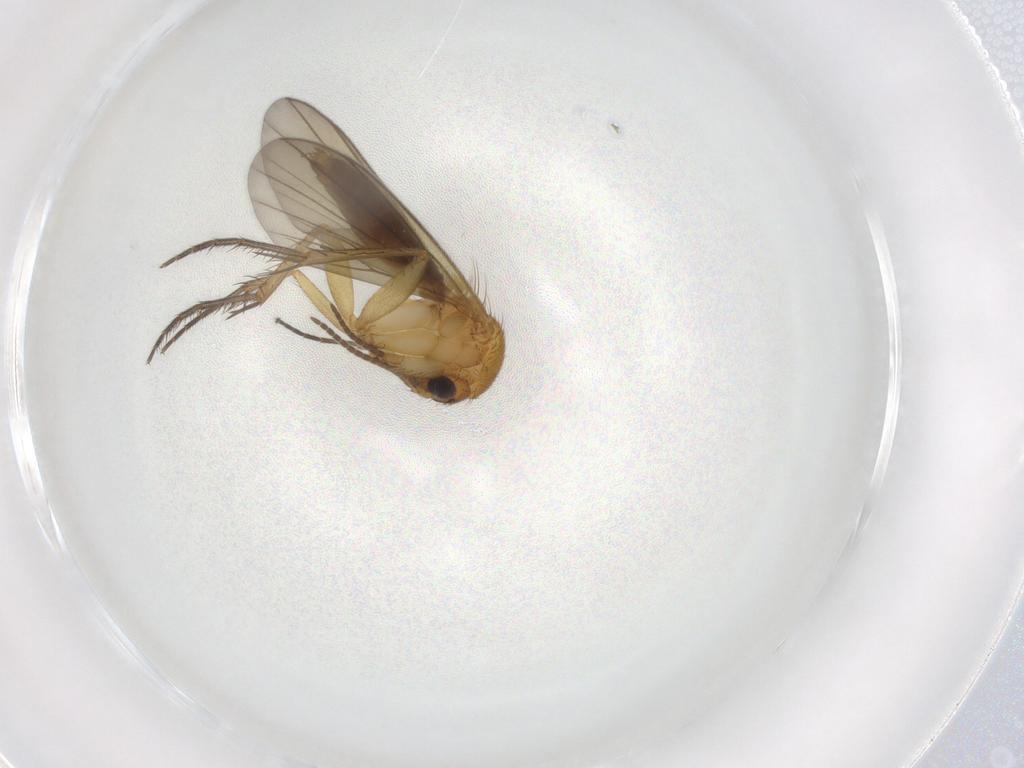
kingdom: Animalia
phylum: Arthropoda
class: Insecta
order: Diptera
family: Mycetophilidae
